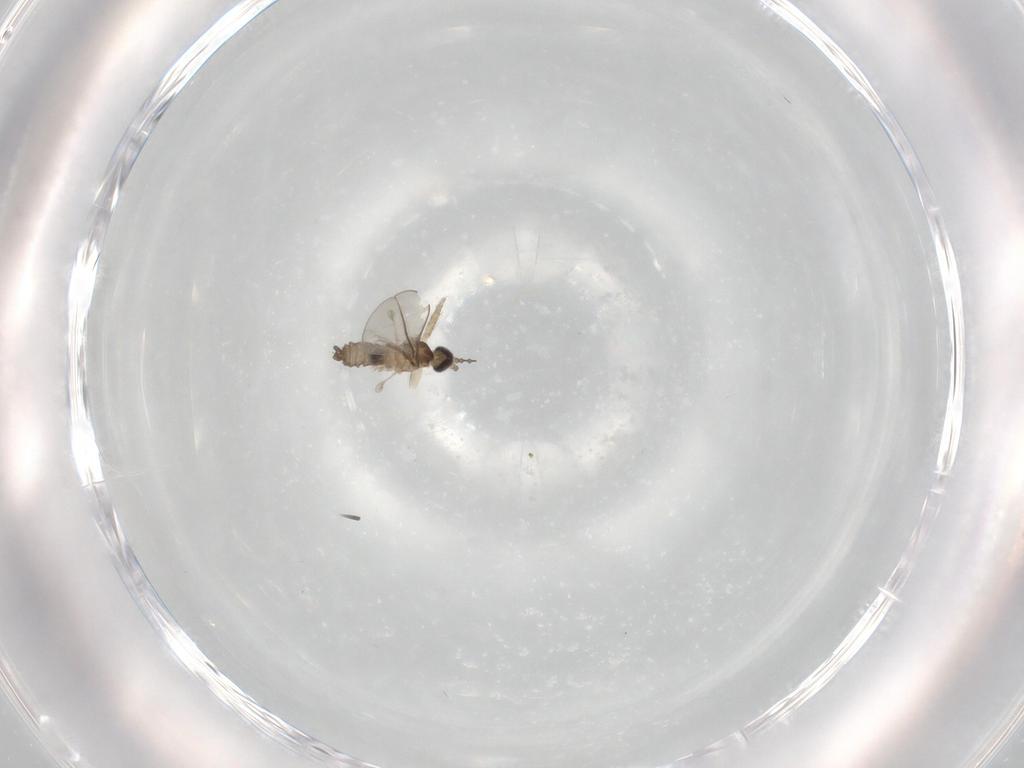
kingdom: Animalia
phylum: Arthropoda
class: Insecta
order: Diptera
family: Cecidomyiidae
